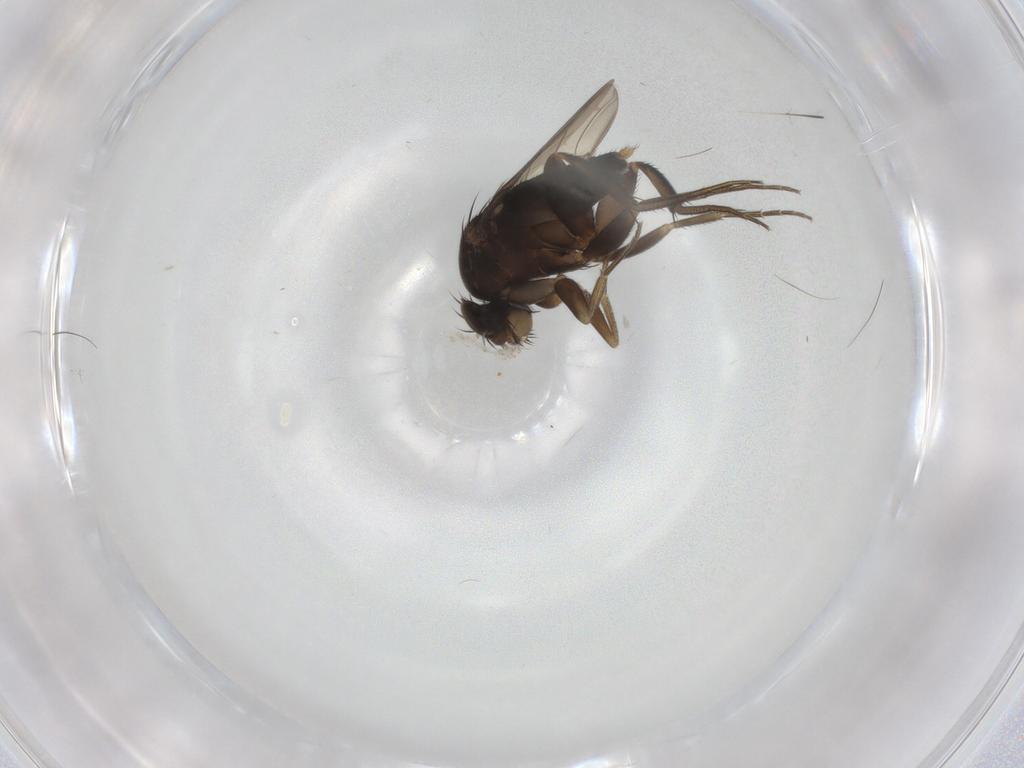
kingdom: Animalia
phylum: Arthropoda
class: Insecta
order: Diptera
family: Phoridae
